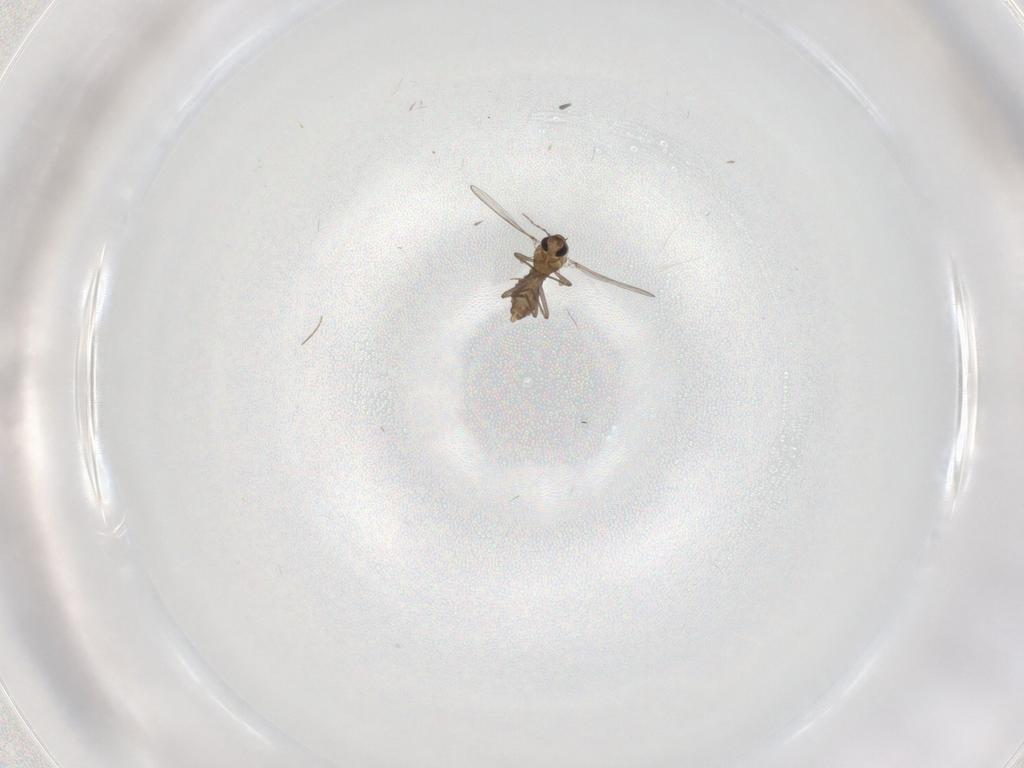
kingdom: Animalia
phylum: Arthropoda
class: Insecta
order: Diptera
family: Chironomidae
